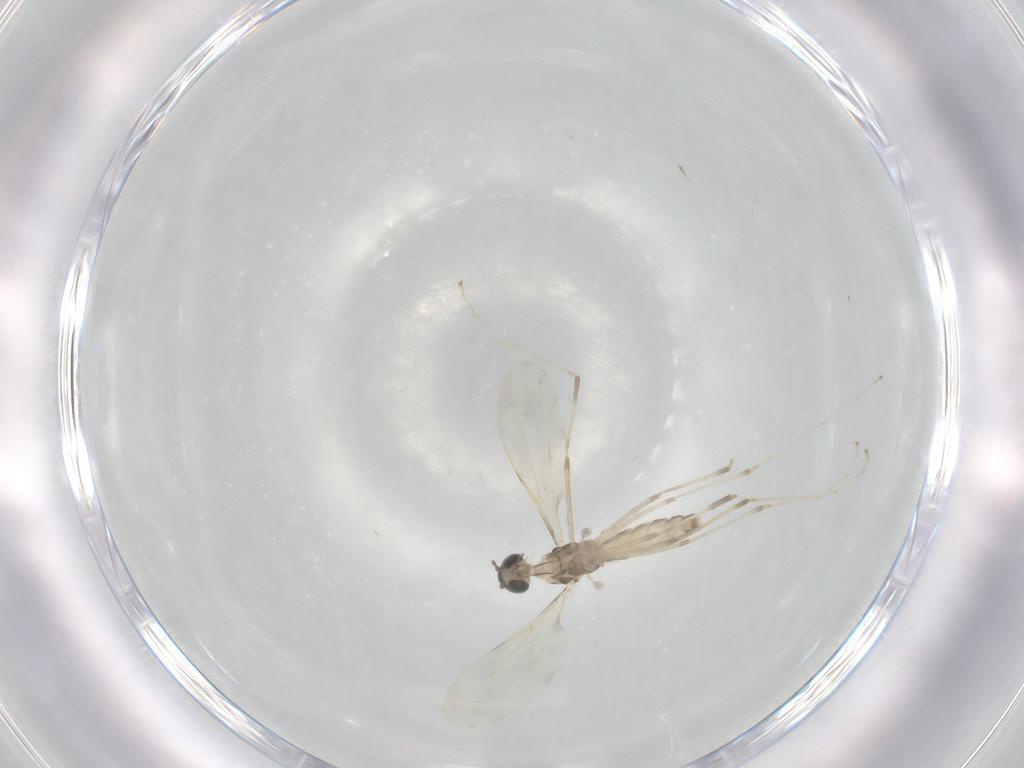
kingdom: Animalia
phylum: Arthropoda
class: Insecta
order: Diptera
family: Cecidomyiidae
